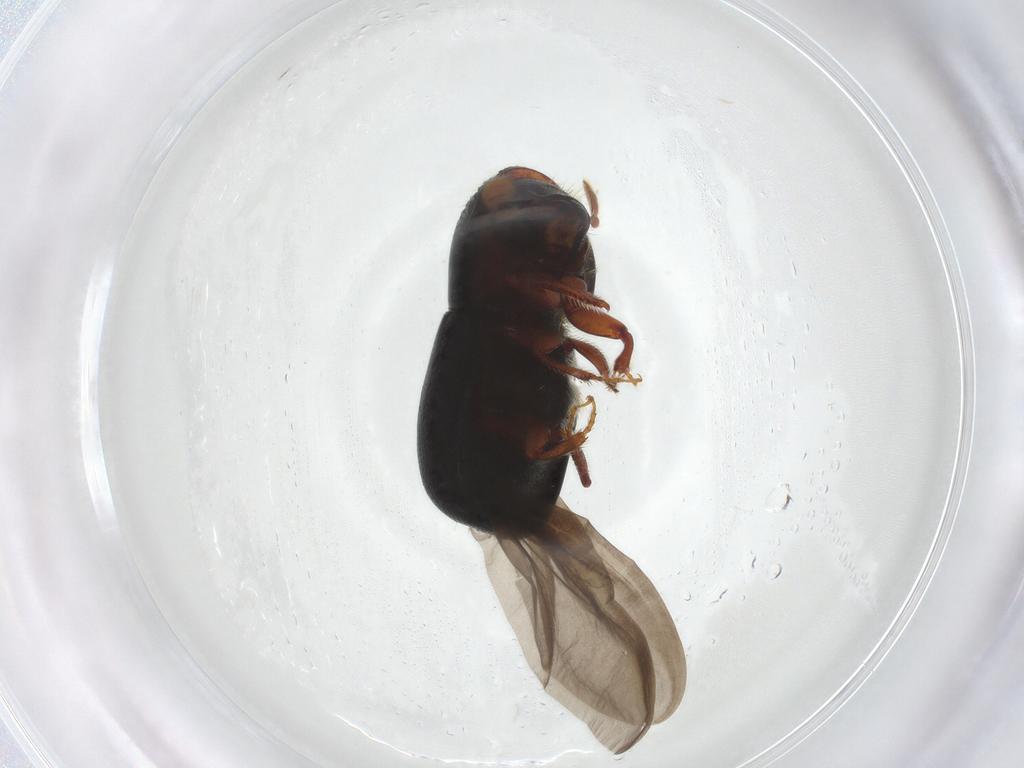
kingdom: Animalia
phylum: Arthropoda
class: Insecta
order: Coleoptera
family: Curculionidae
